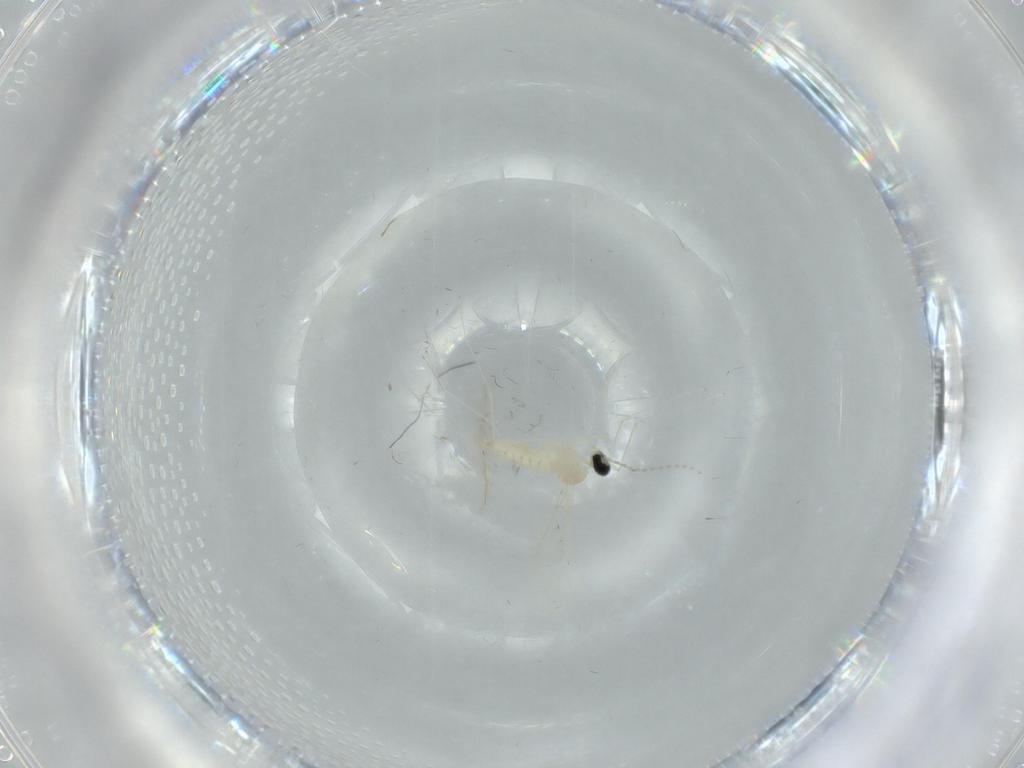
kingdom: Animalia
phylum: Arthropoda
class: Insecta
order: Diptera
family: Cecidomyiidae
